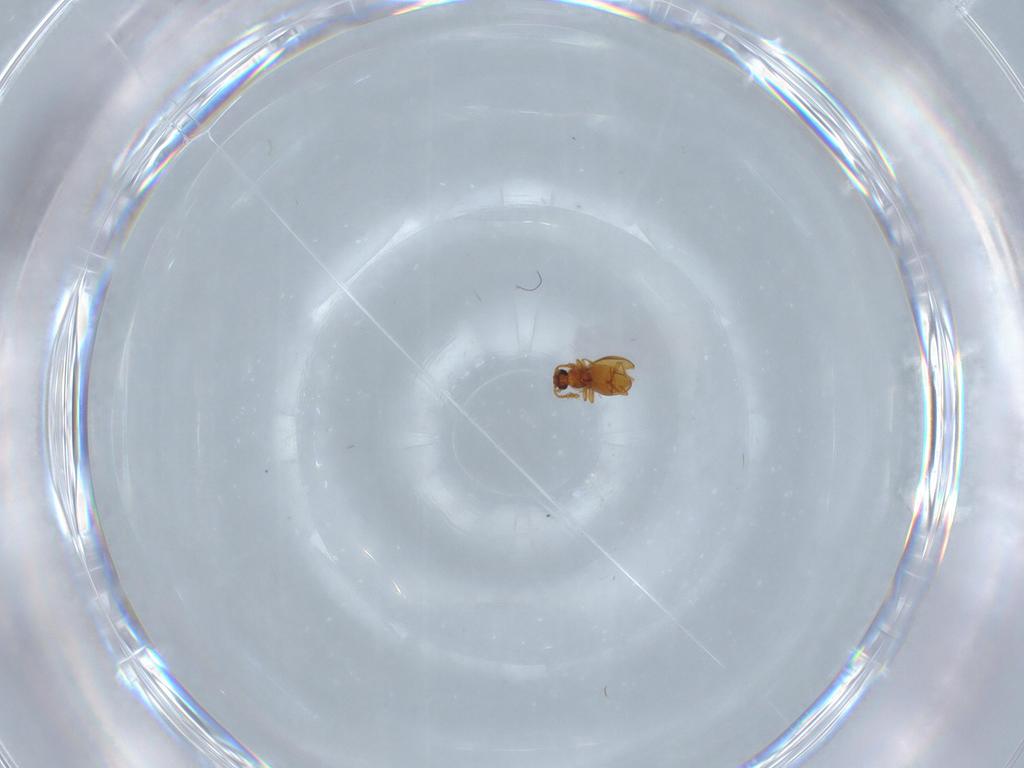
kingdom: Animalia
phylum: Arthropoda
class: Insecta
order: Coleoptera
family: Staphylinidae
